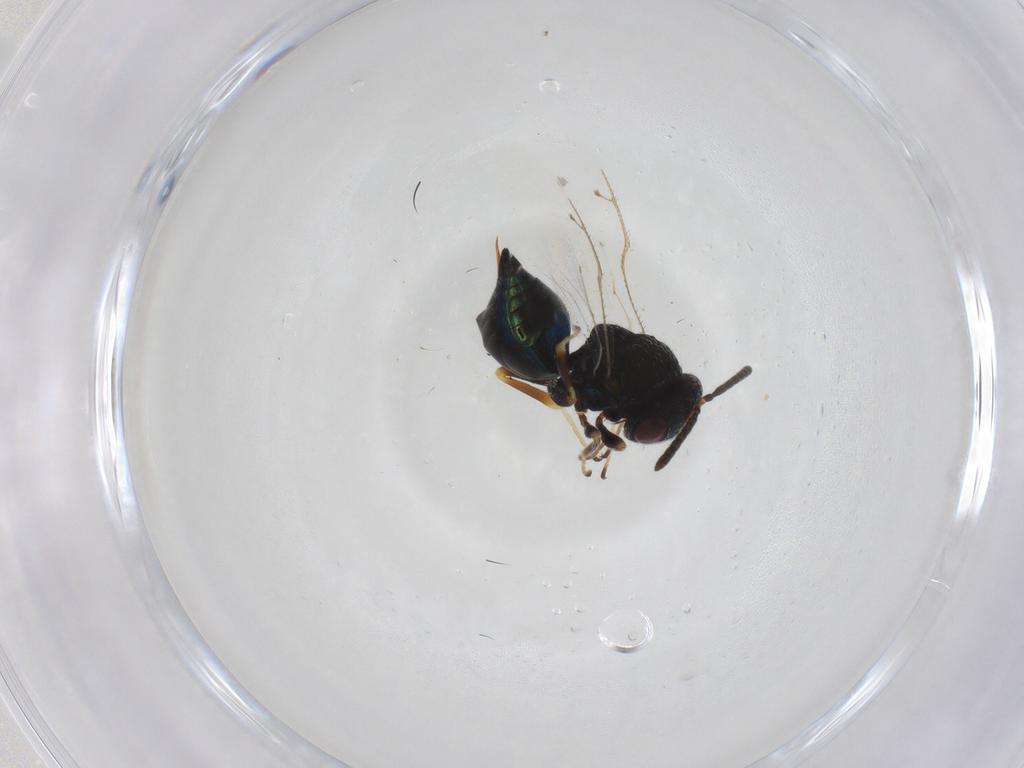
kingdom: Animalia
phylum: Arthropoda
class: Insecta
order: Hymenoptera
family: Pteromalidae
